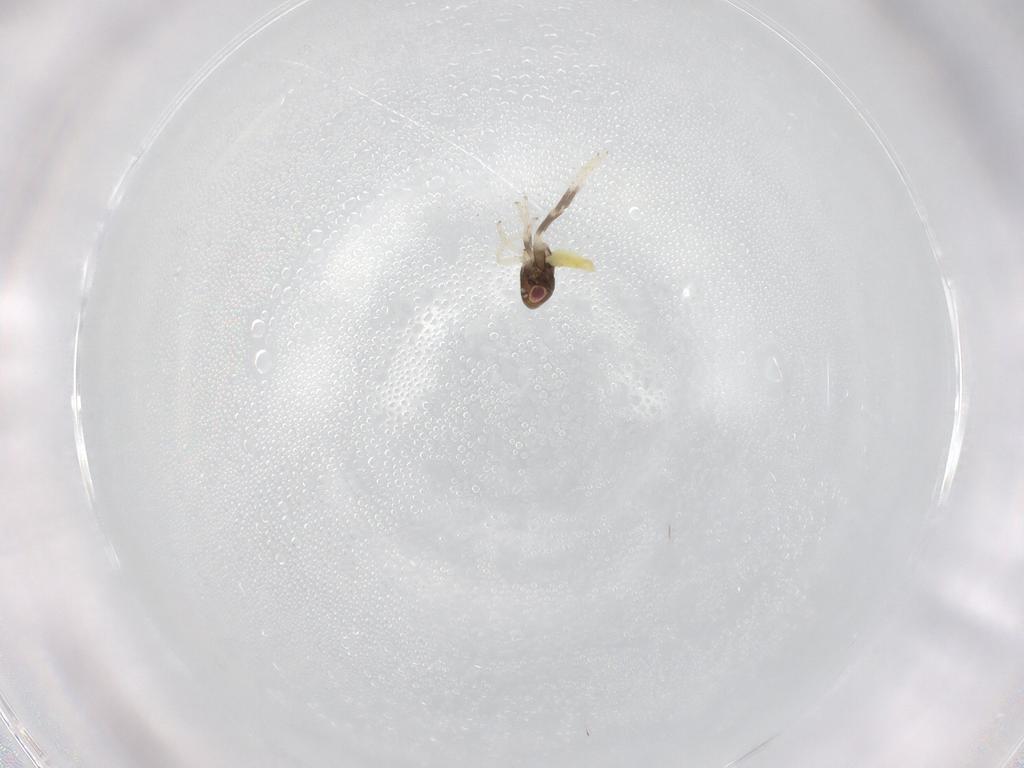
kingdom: Animalia
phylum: Arthropoda
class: Insecta
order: Hemiptera
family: Cicadellidae
